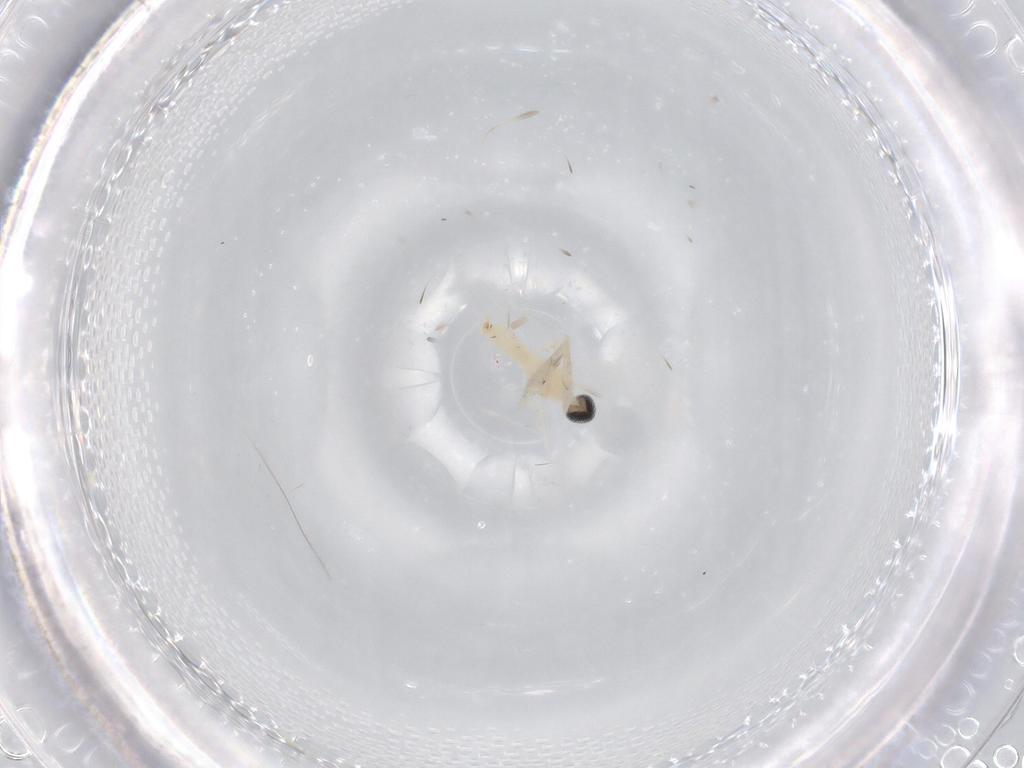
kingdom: Animalia
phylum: Arthropoda
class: Insecta
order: Diptera
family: Cecidomyiidae
